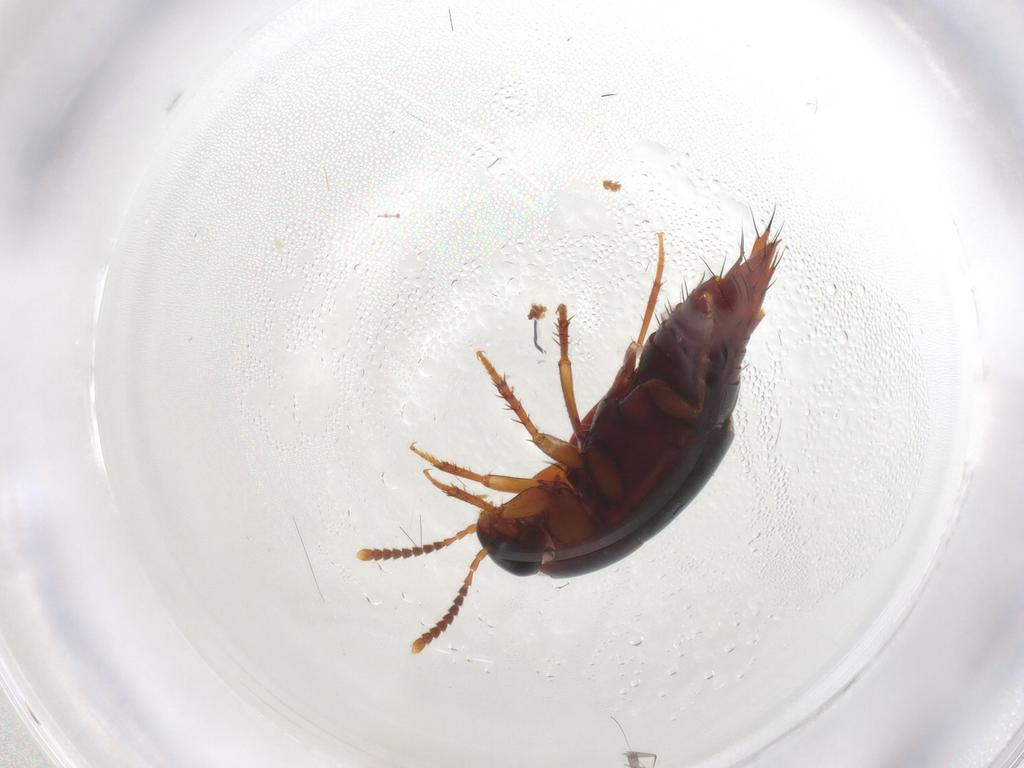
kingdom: Animalia
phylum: Arthropoda
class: Insecta
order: Coleoptera
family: Staphylinidae
